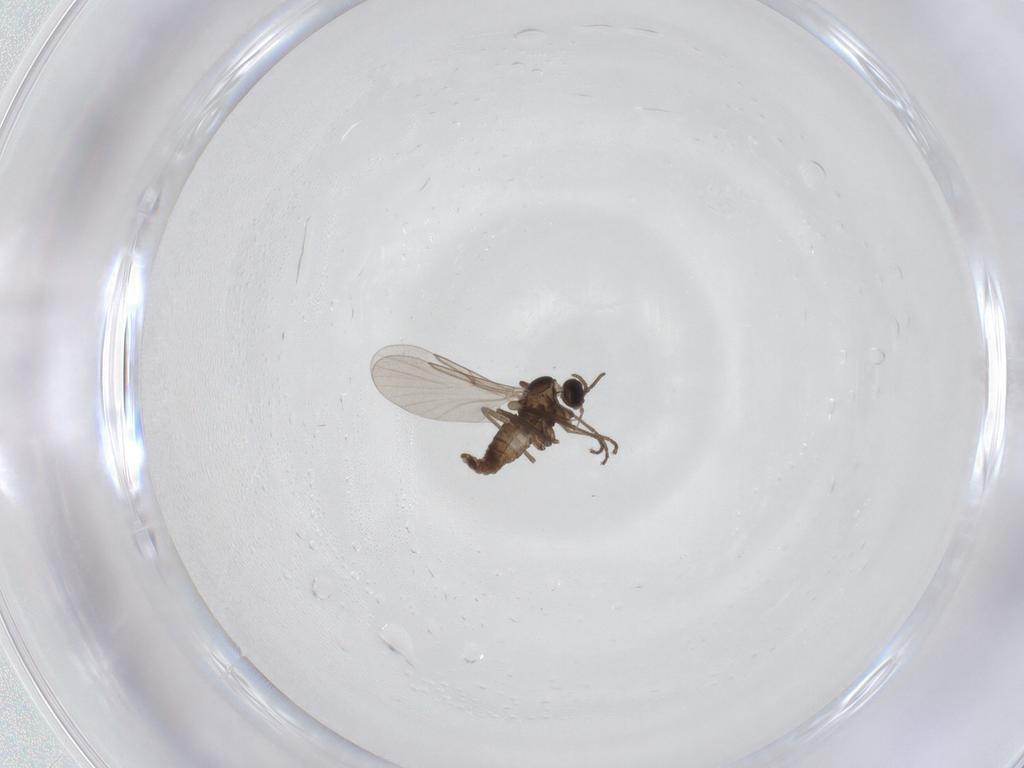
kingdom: Animalia
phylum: Arthropoda
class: Insecta
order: Diptera
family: Cecidomyiidae
